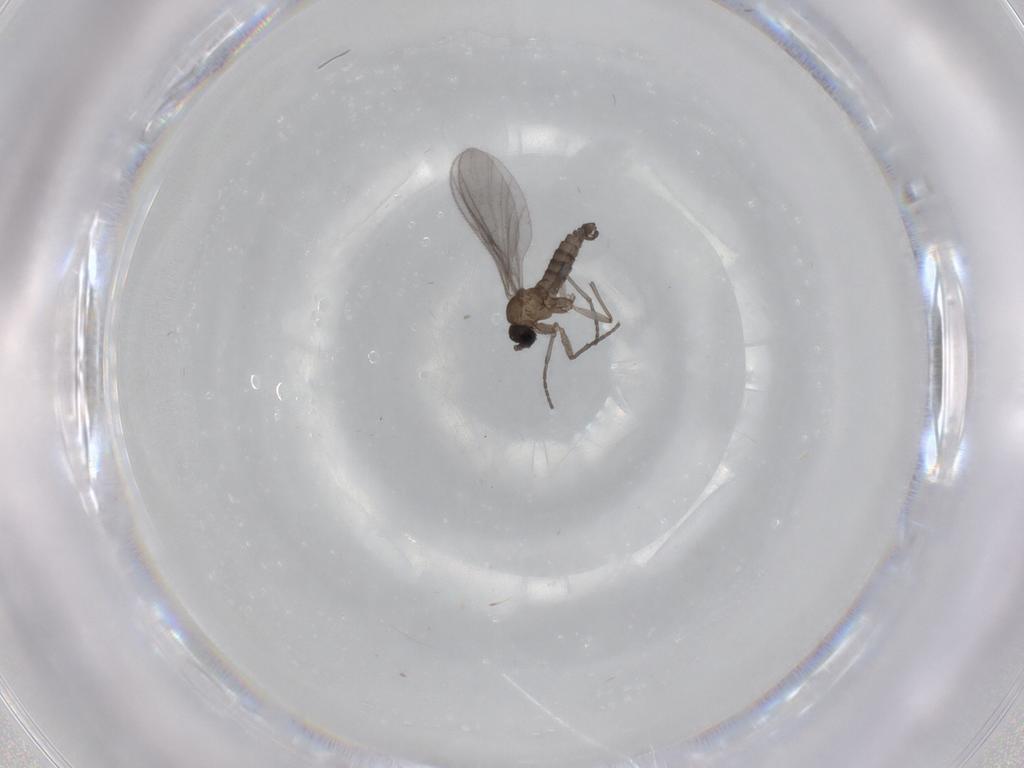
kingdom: Animalia
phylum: Arthropoda
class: Insecta
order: Diptera
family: Sciaridae
